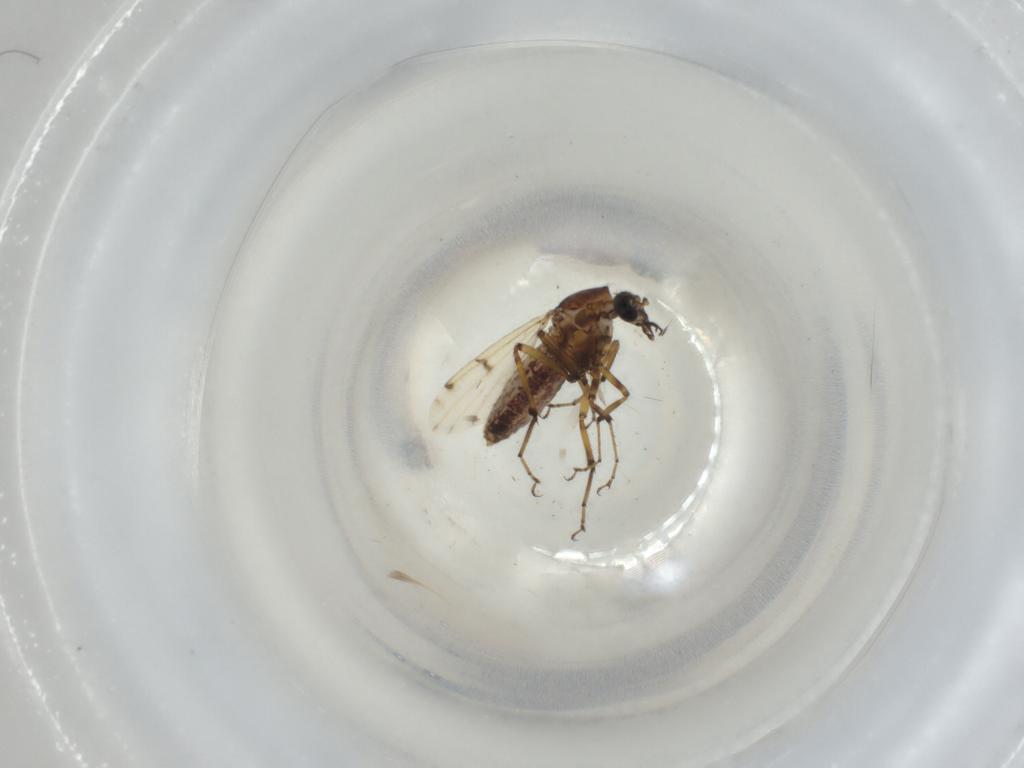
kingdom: Animalia
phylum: Arthropoda
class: Insecta
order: Diptera
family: Ceratopogonidae
